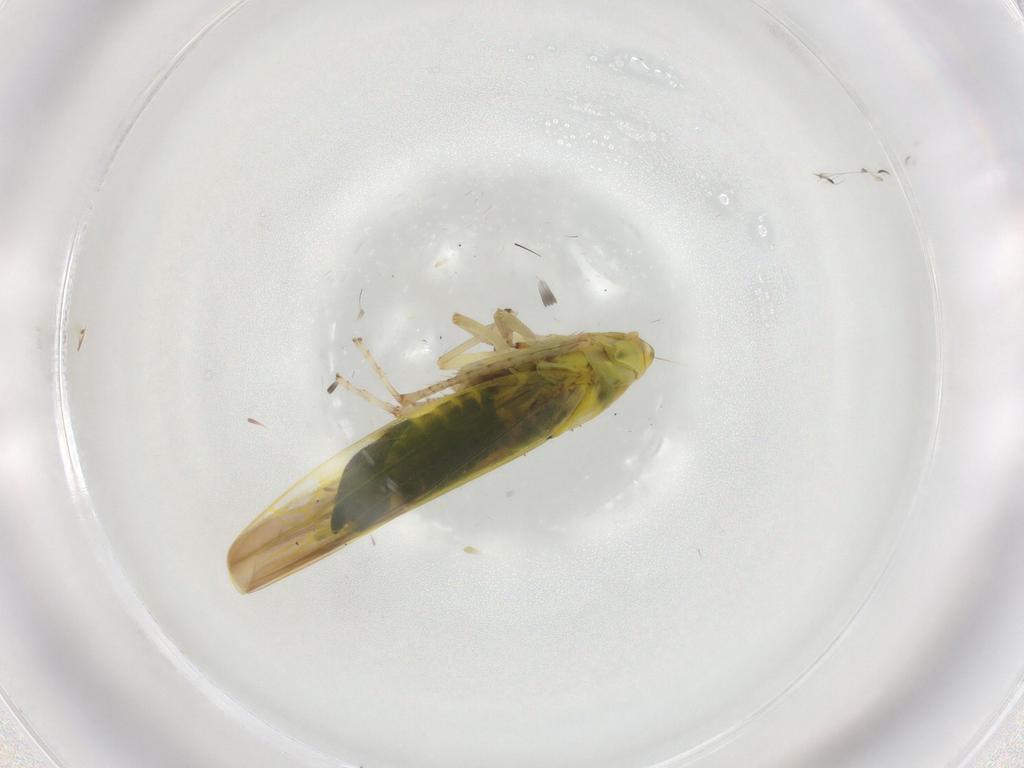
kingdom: Animalia
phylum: Arthropoda
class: Insecta
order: Hemiptera
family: Cicadellidae
